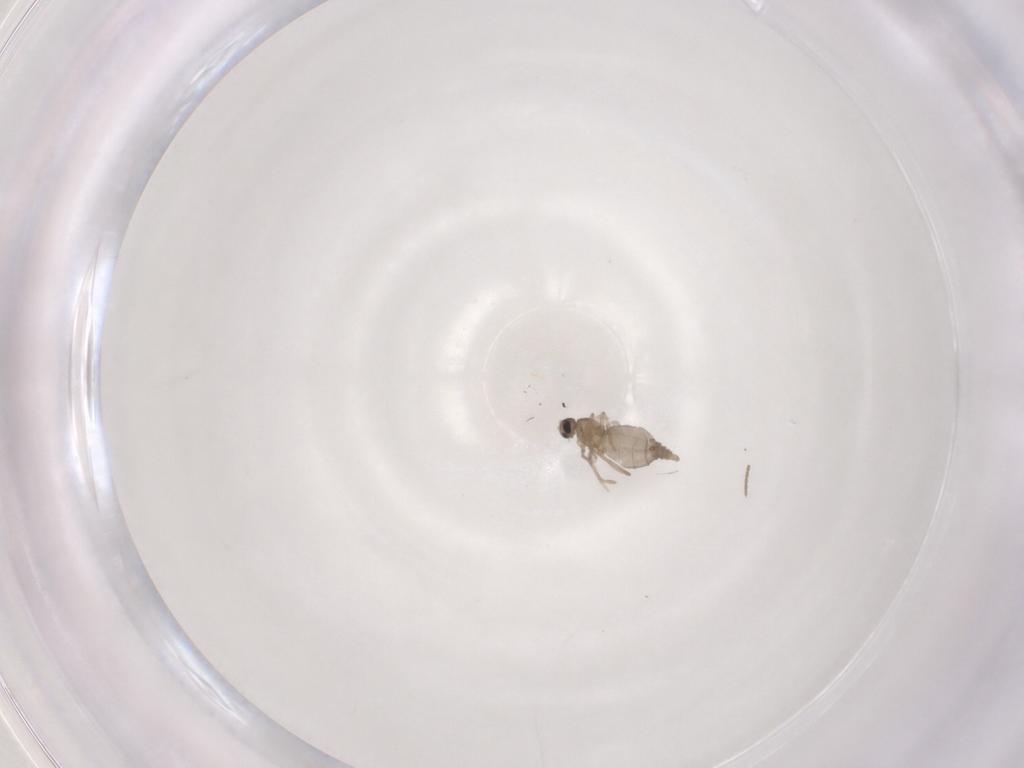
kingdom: Animalia
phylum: Arthropoda
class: Insecta
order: Diptera
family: Cecidomyiidae
